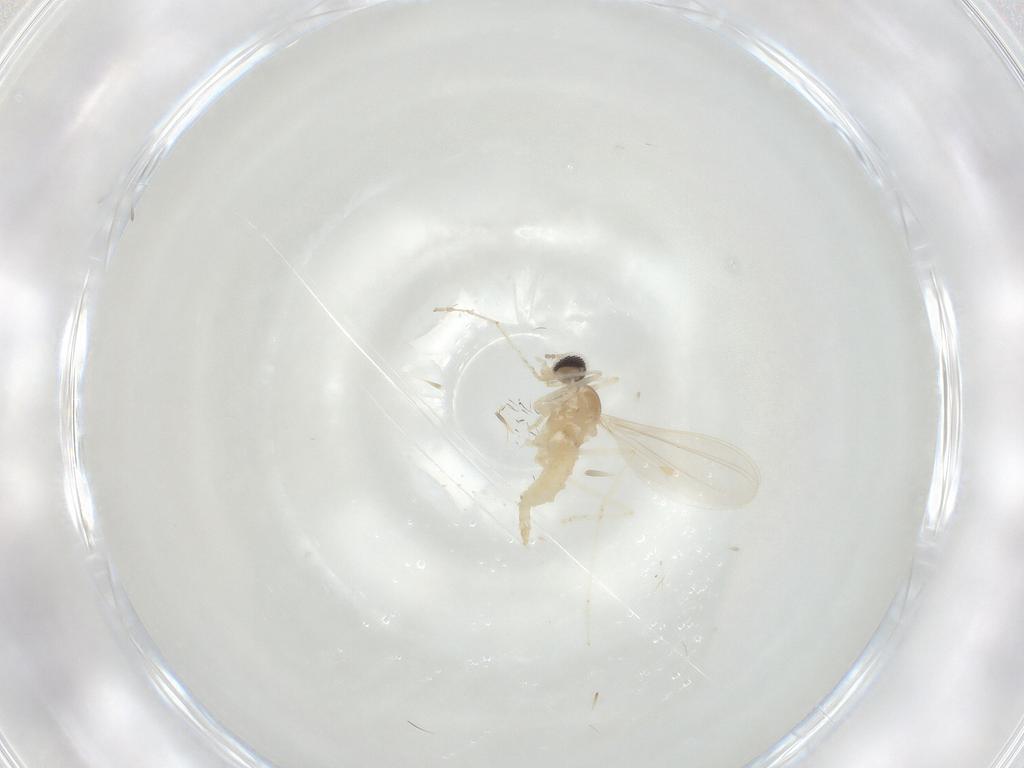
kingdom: Animalia
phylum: Arthropoda
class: Insecta
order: Diptera
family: Cecidomyiidae
